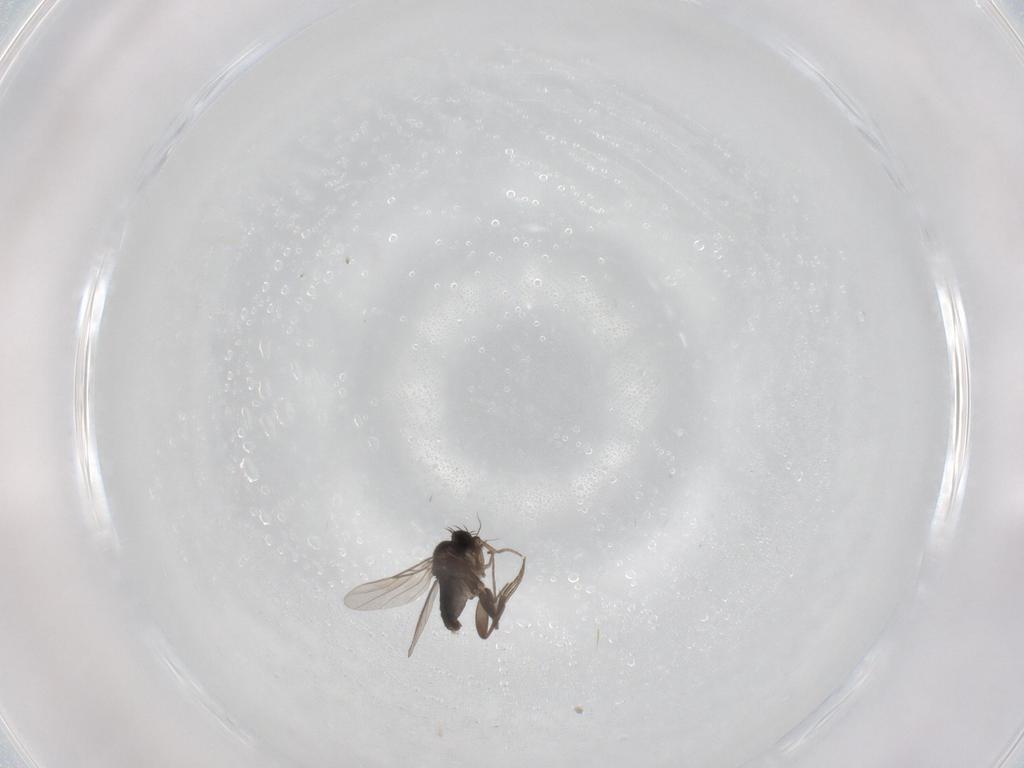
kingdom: Animalia
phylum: Arthropoda
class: Insecta
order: Diptera
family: Phoridae
